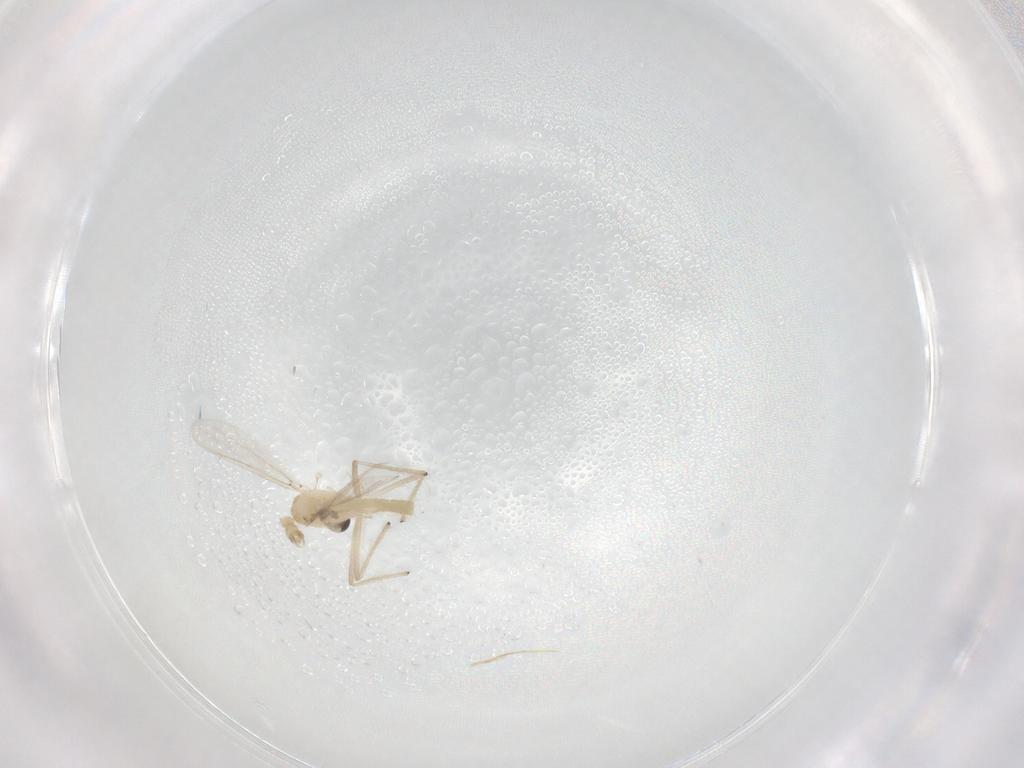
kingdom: Animalia
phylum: Arthropoda
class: Insecta
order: Diptera
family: Chironomidae
